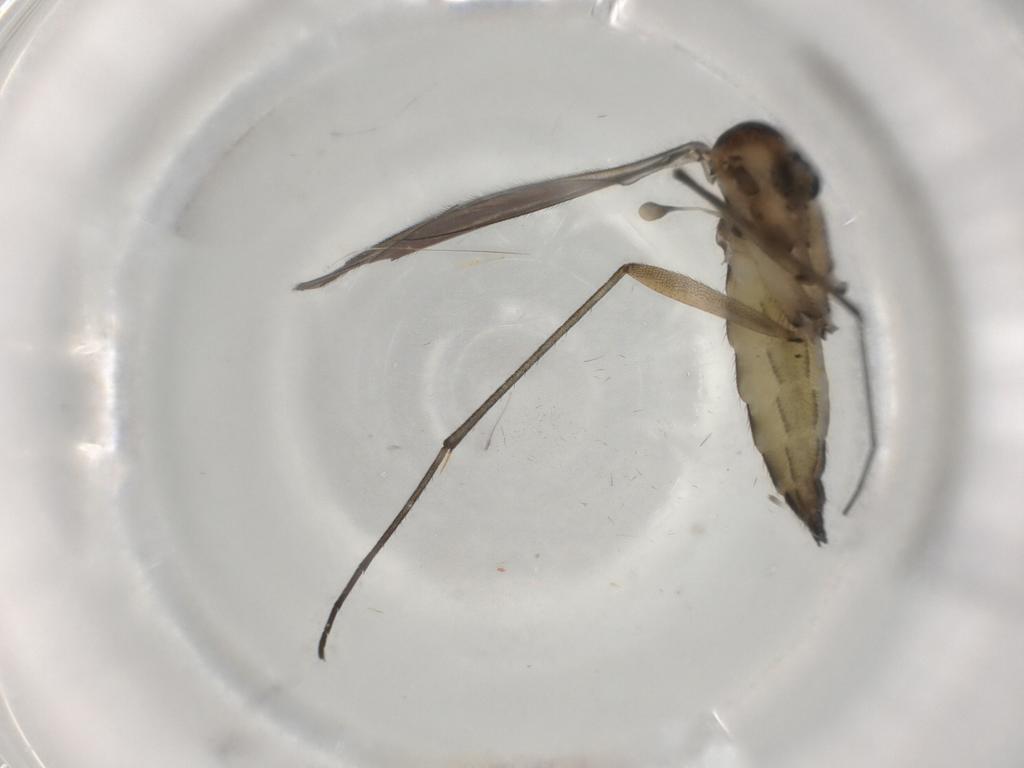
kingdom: Animalia
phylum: Arthropoda
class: Insecta
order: Diptera
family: Sciaridae
